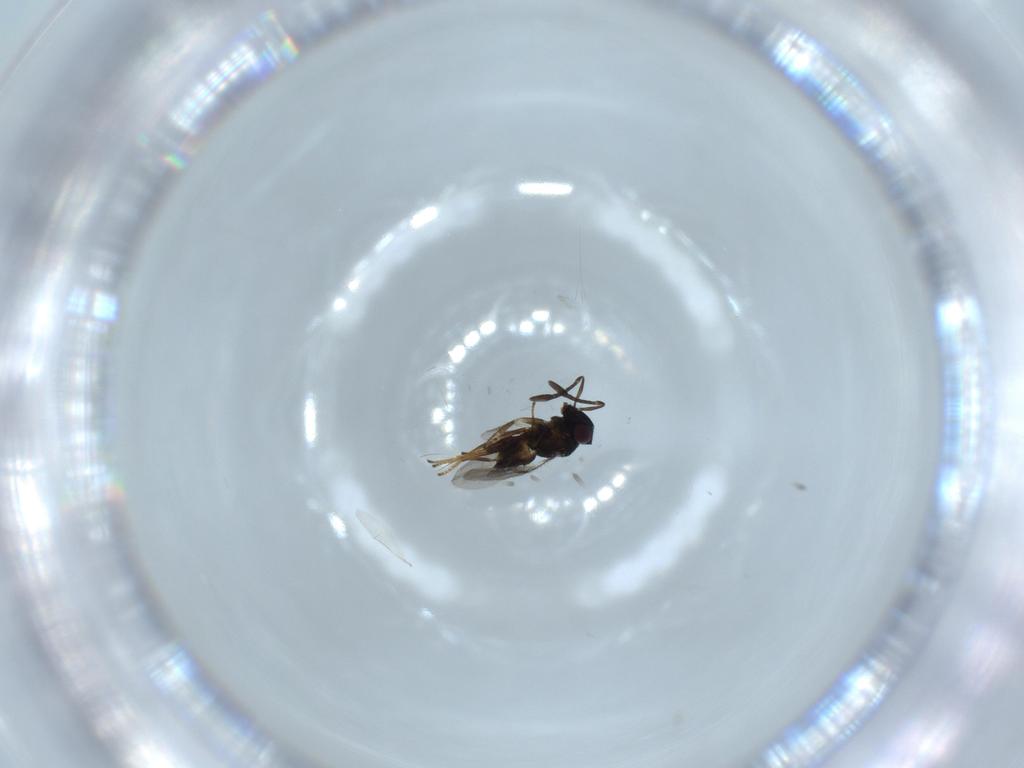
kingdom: Animalia
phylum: Arthropoda
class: Insecta
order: Hymenoptera
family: Encyrtidae
